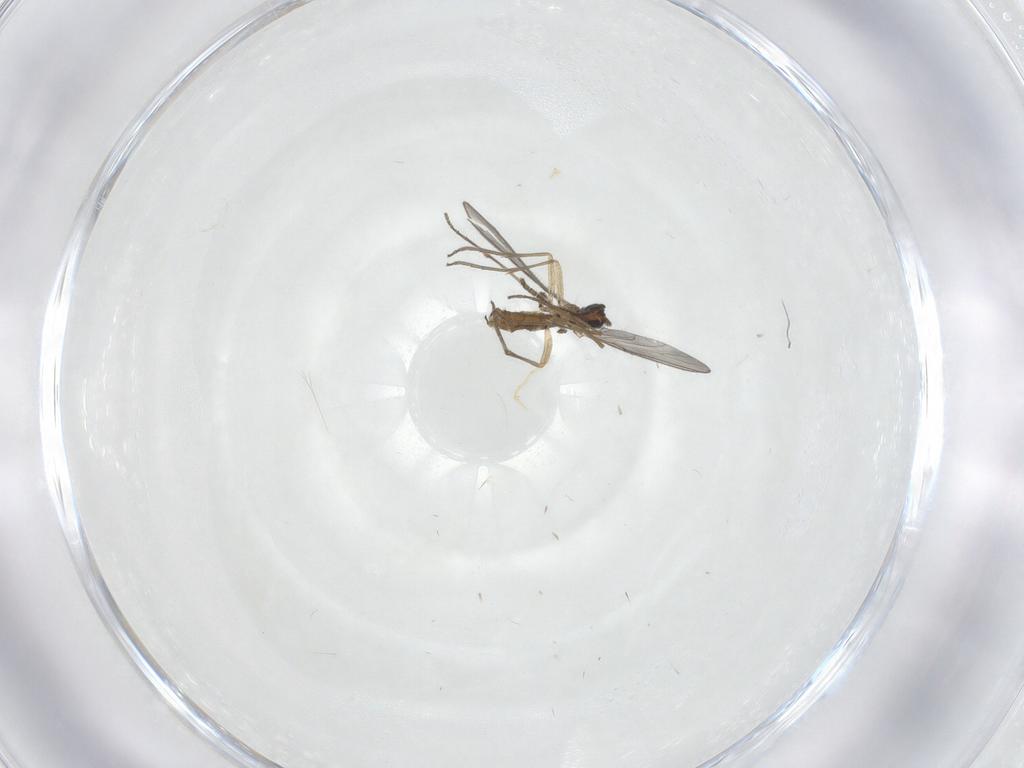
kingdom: Animalia
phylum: Arthropoda
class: Insecta
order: Diptera
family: Sciaridae
